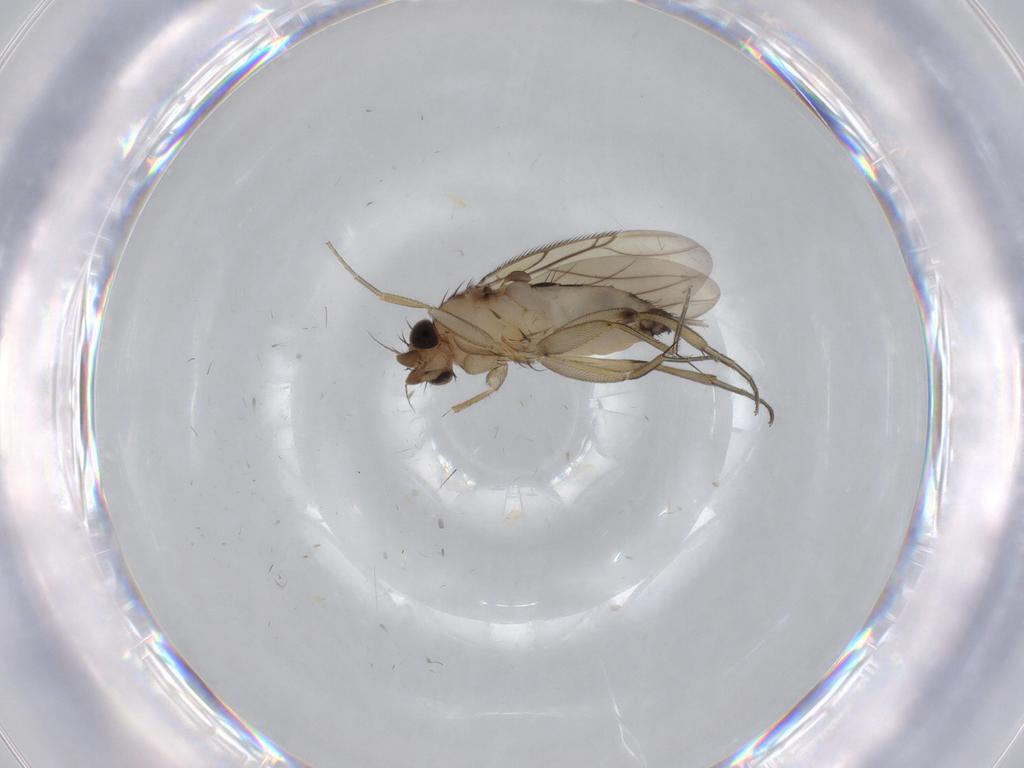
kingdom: Animalia
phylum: Arthropoda
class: Insecta
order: Diptera
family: Phoridae
